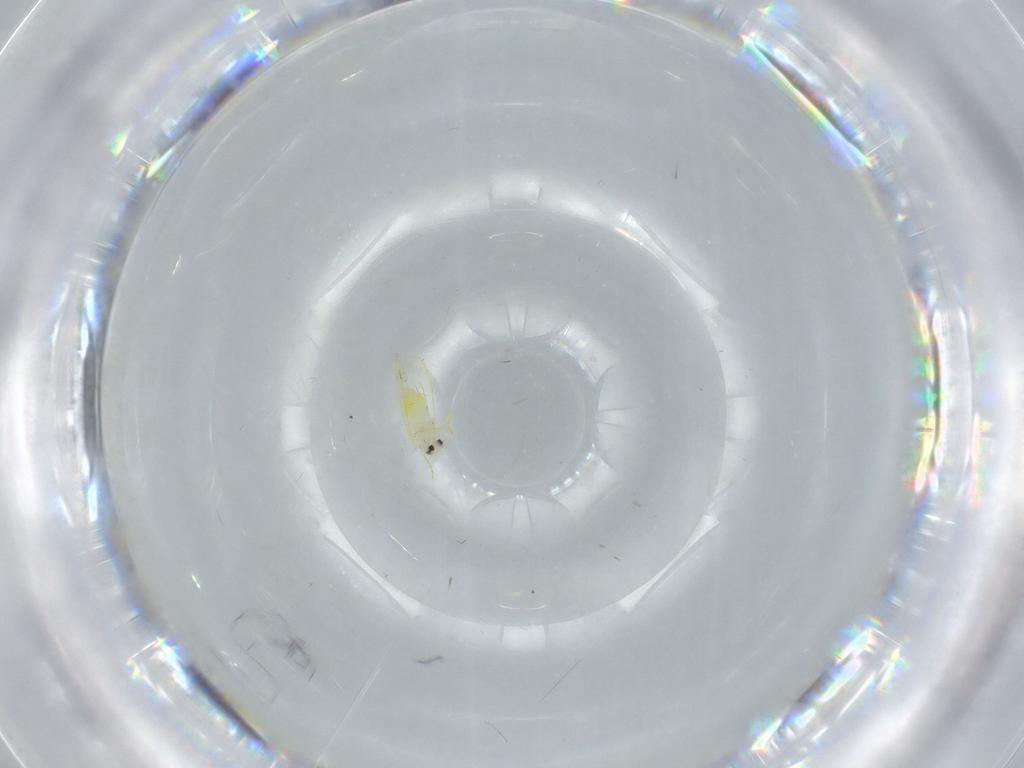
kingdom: Animalia
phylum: Arthropoda
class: Insecta
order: Hemiptera
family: Aleyrodidae
